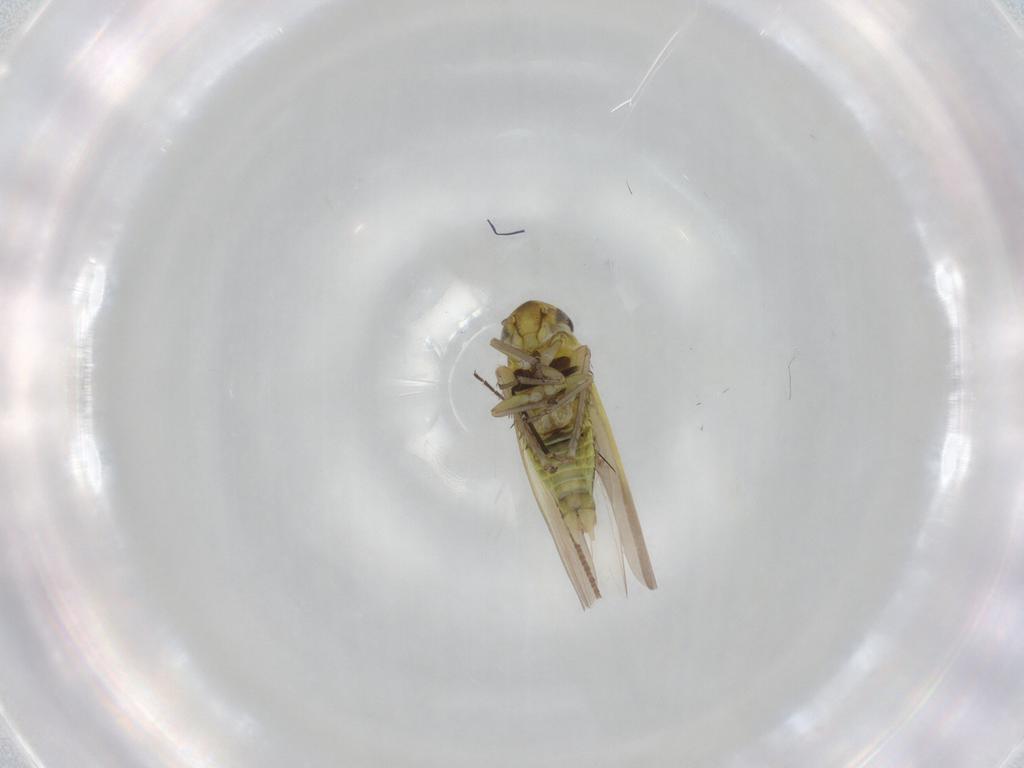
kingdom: Animalia
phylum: Arthropoda
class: Insecta
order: Hemiptera
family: Cicadellidae
